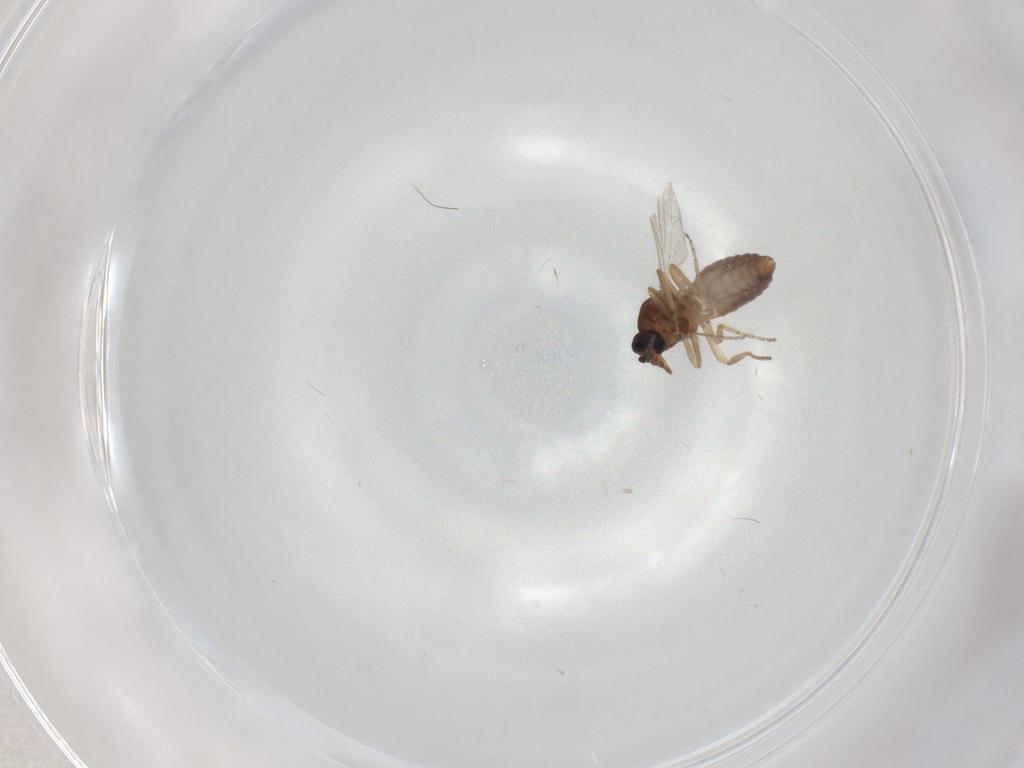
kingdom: Animalia
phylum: Arthropoda
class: Insecta
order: Diptera
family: Ceratopogonidae
